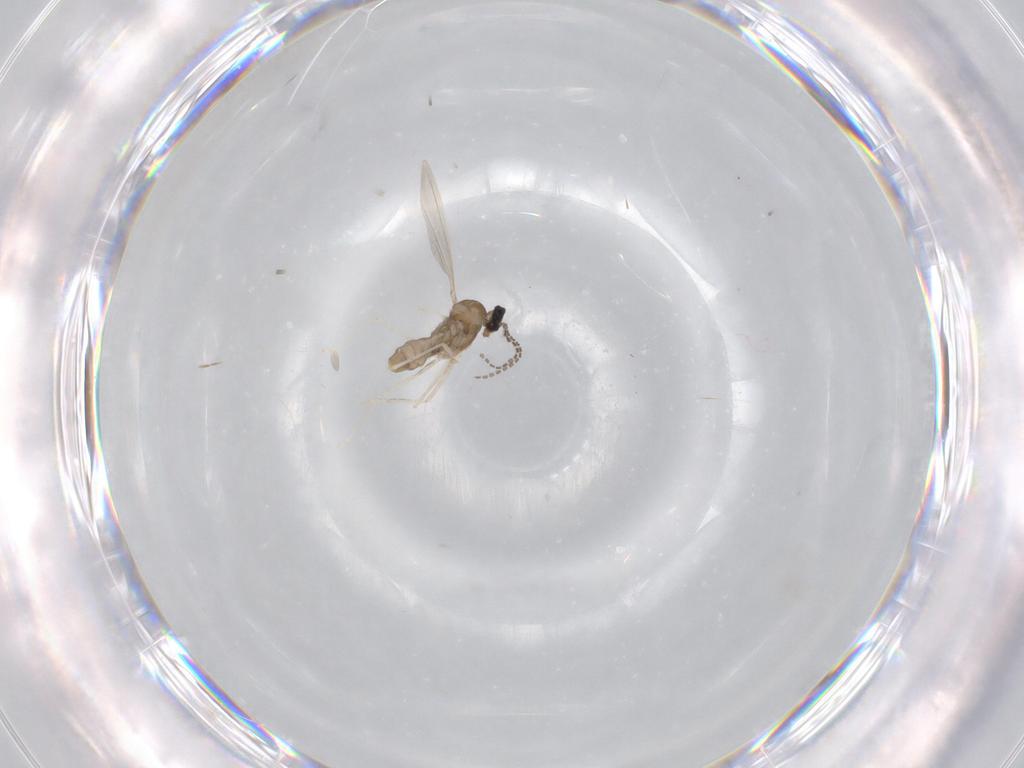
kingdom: Animalia
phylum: Arthropoda
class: Insecta
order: Diptera
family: Cecidomyiidae
